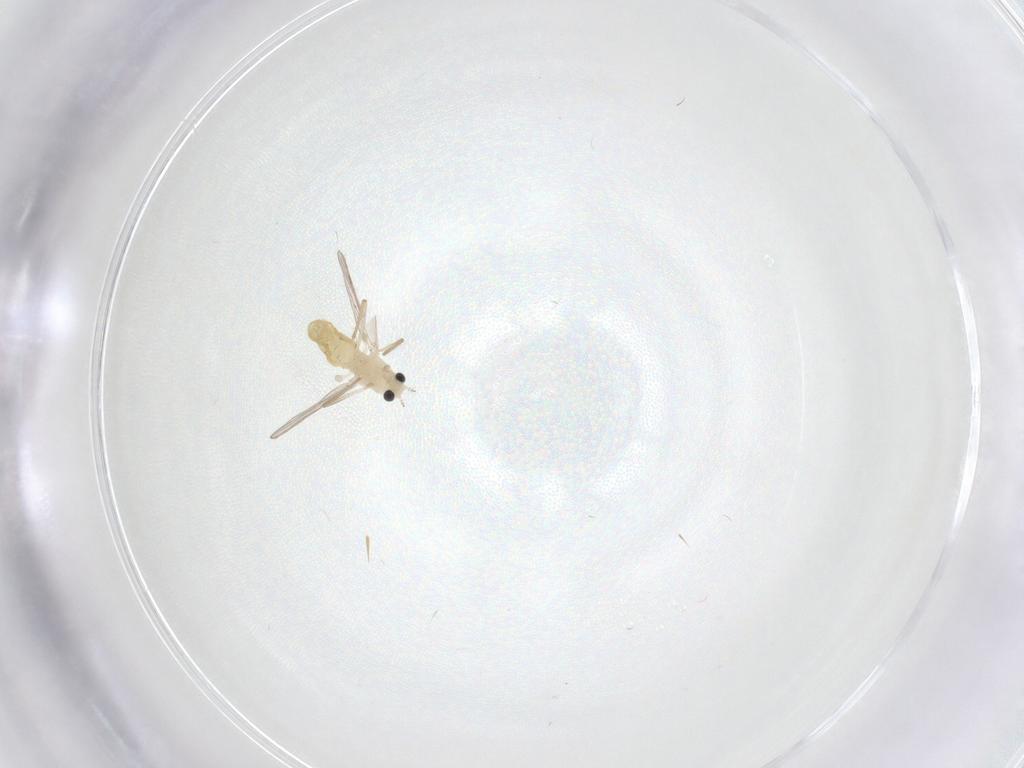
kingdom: Animalia
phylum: Arthropoda
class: Insecta
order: Diptera
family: Chironomidae
